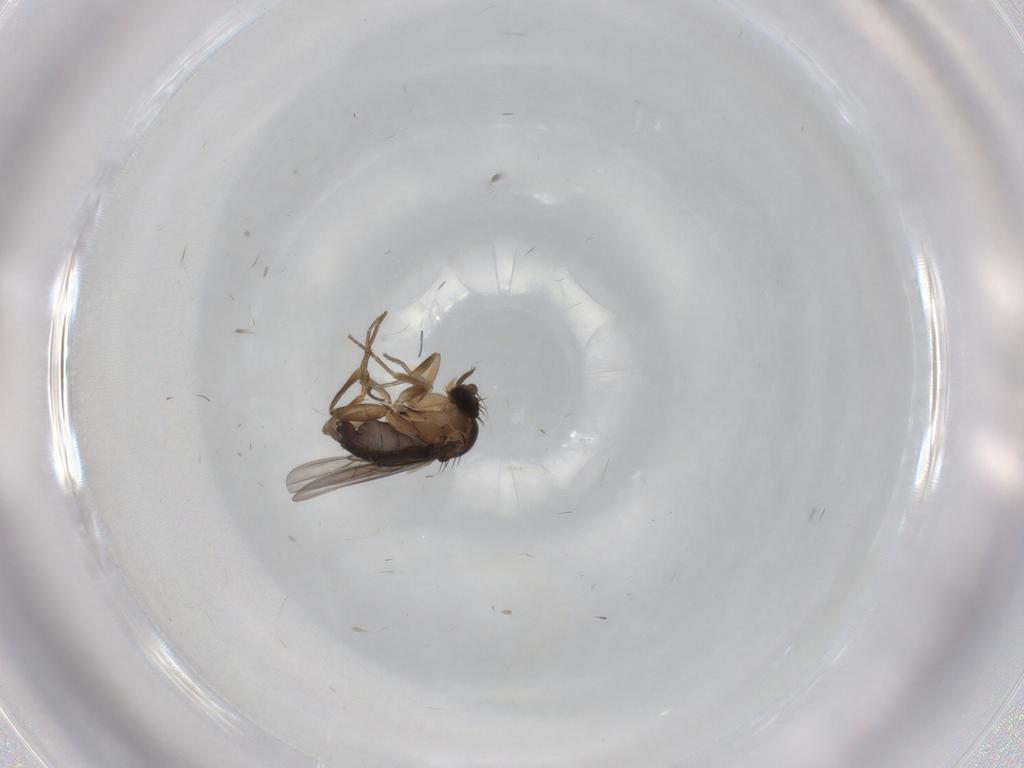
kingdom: Animalia
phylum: Arthropoda
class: Insecta
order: Diptera
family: Phoridae
